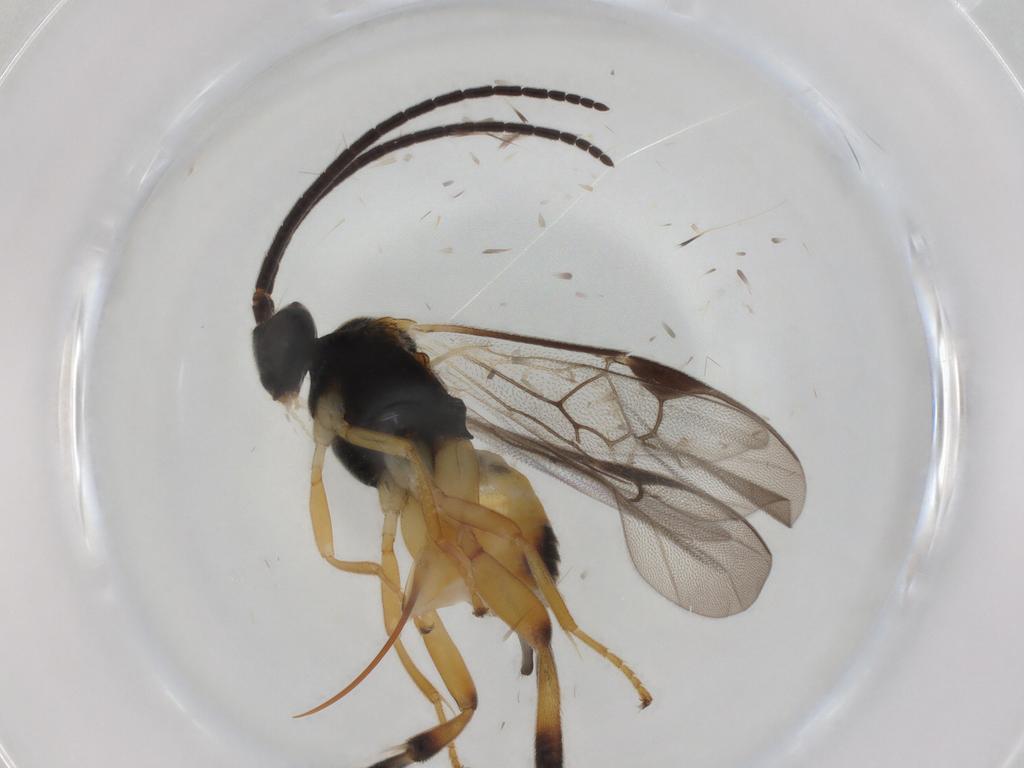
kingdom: Animalia
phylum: Arthropoda
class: Insecta
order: Hymenoptera
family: Braconidae
